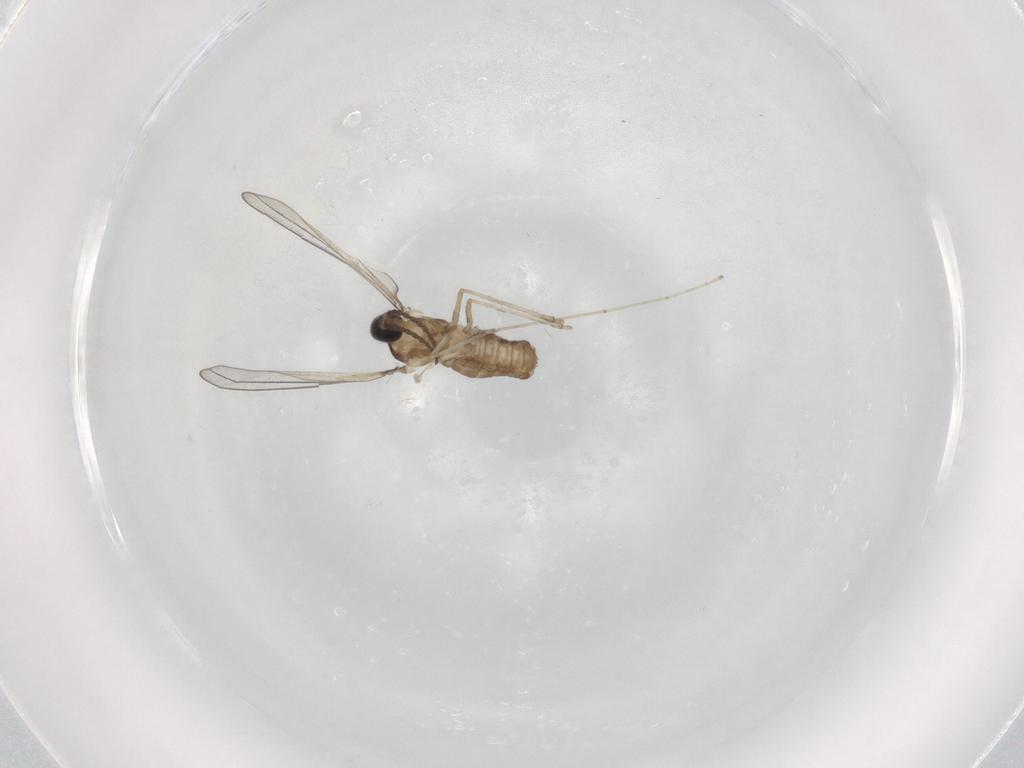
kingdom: Animalia
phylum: Arthropoda
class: Insecta
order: Diptera
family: Cecidomyiidae
